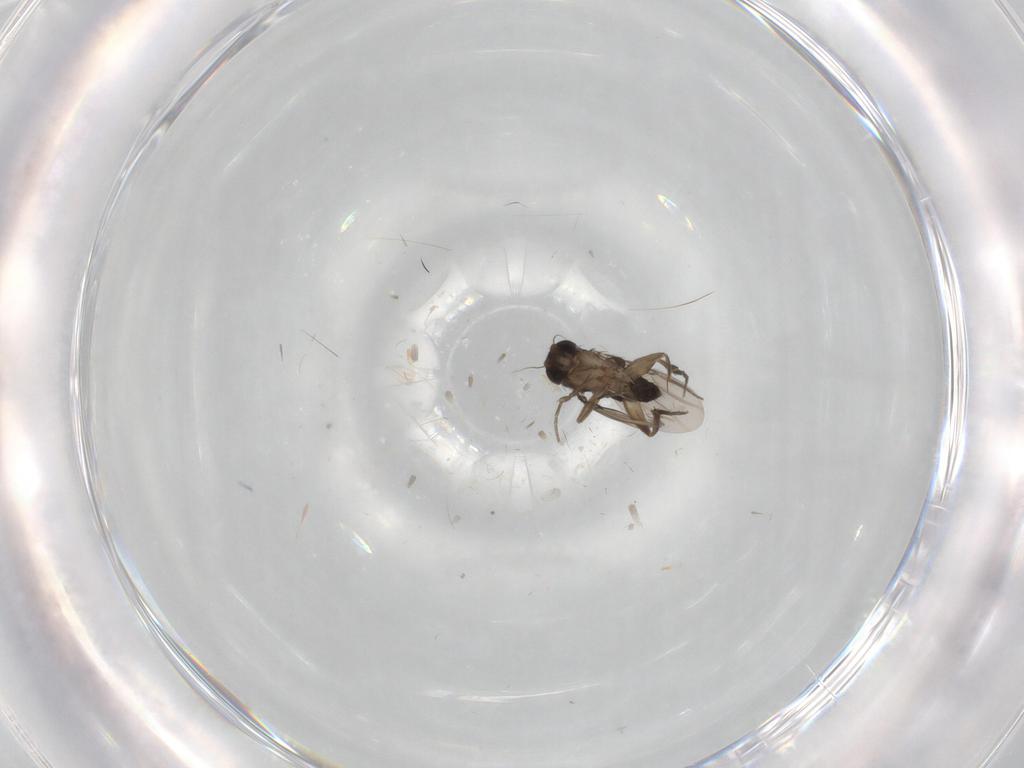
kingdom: Animalia
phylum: Arthropoda
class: Insecta
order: Diptera
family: Phoridae
